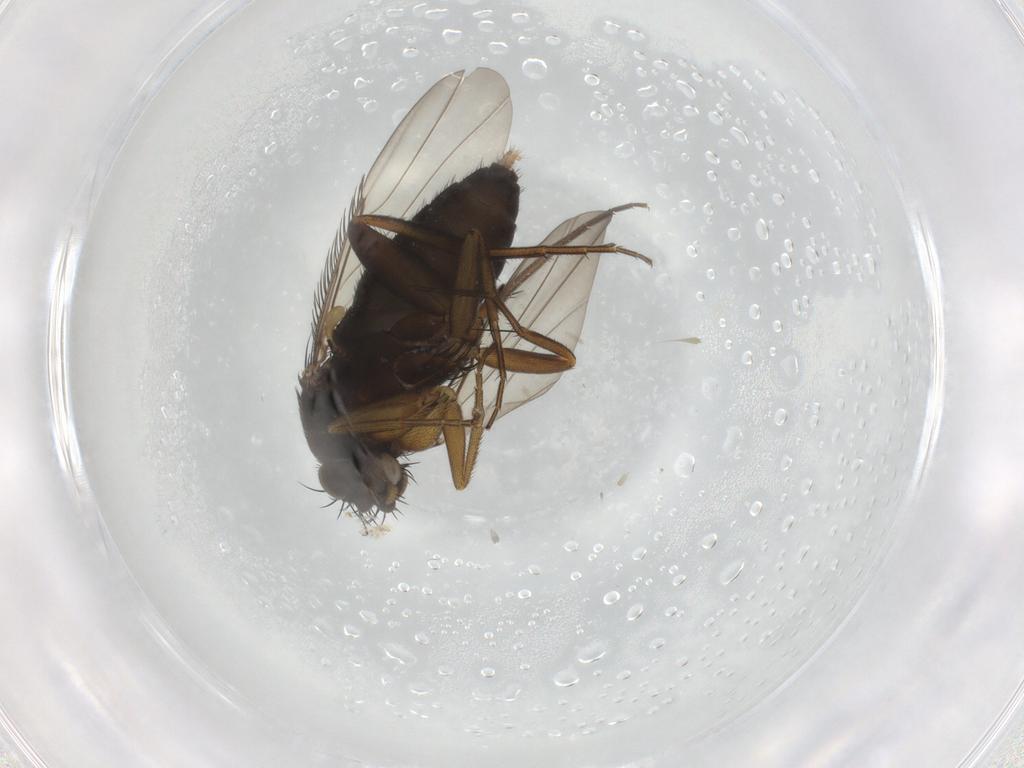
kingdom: Animalia
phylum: Arthropoda
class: Insecta
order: Diptera
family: Phoridae
